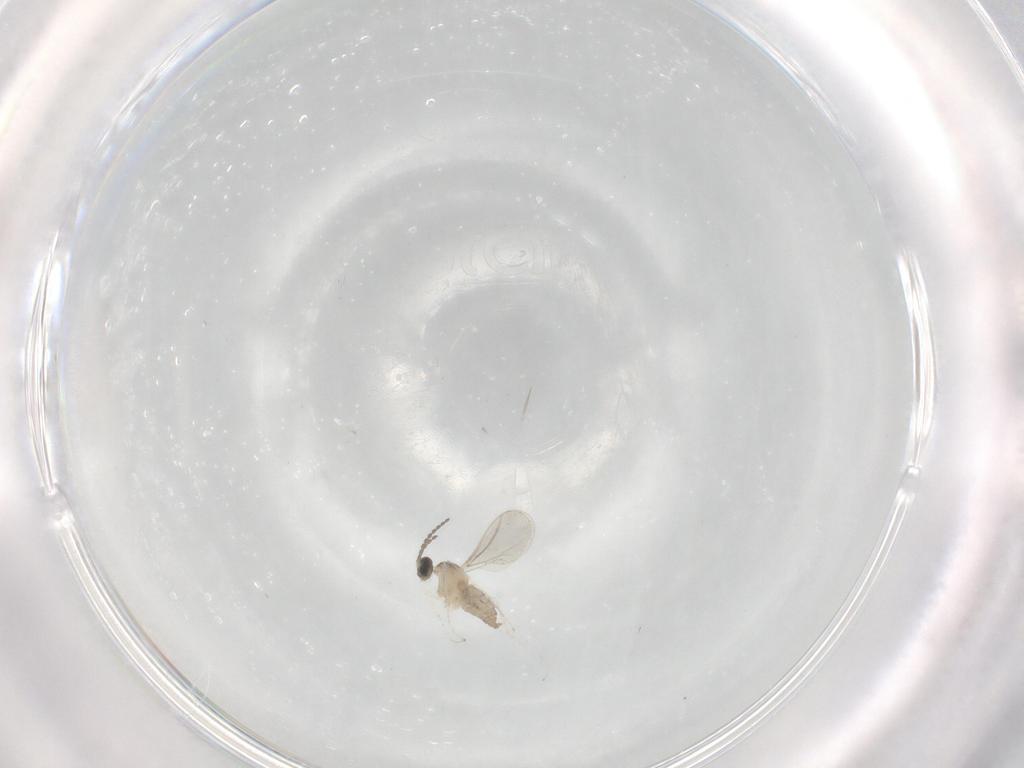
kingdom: Animalia
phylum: Arthropoda
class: Insecta
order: Diptera
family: Cecidomyiidae
